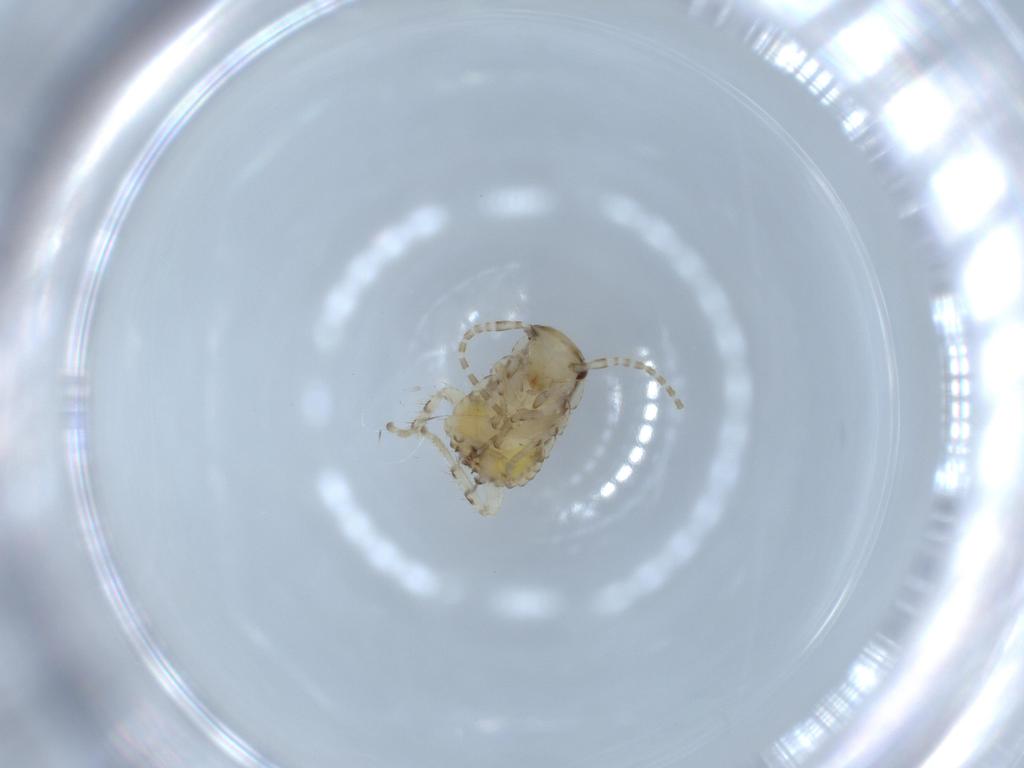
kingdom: Animalia
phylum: Arthropoda
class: Insecta
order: Blattodea
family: Ectobiidae
